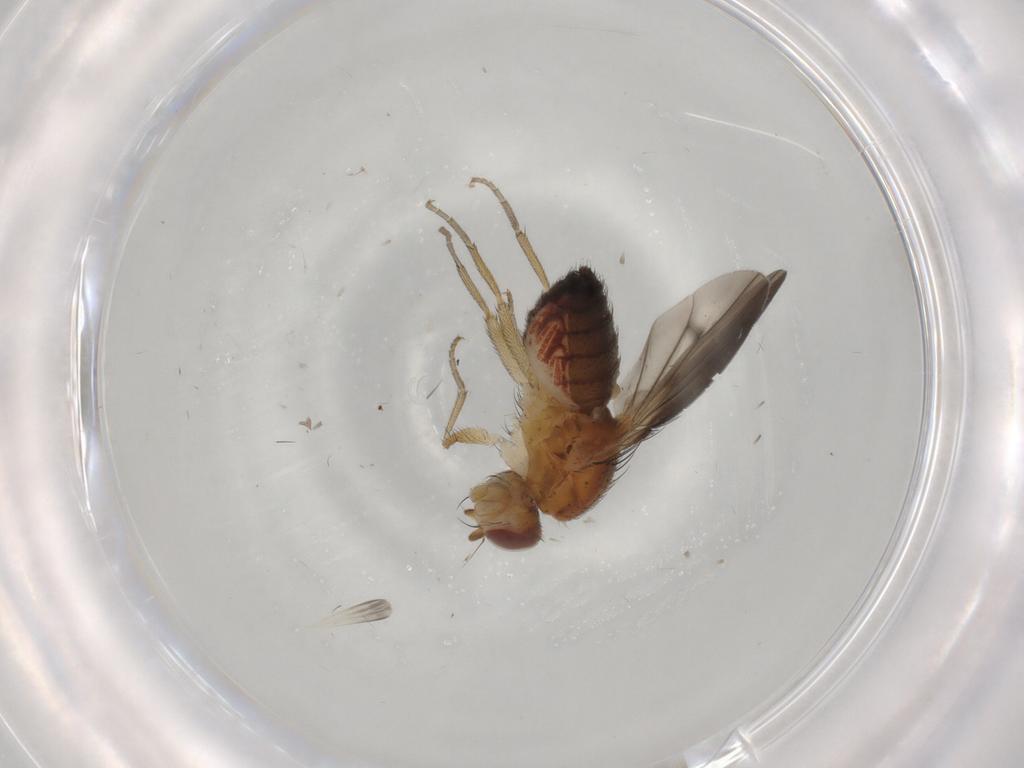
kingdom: Animalia
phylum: Arthropoda
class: Insecta
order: Diptera
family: Heleomyzidae
